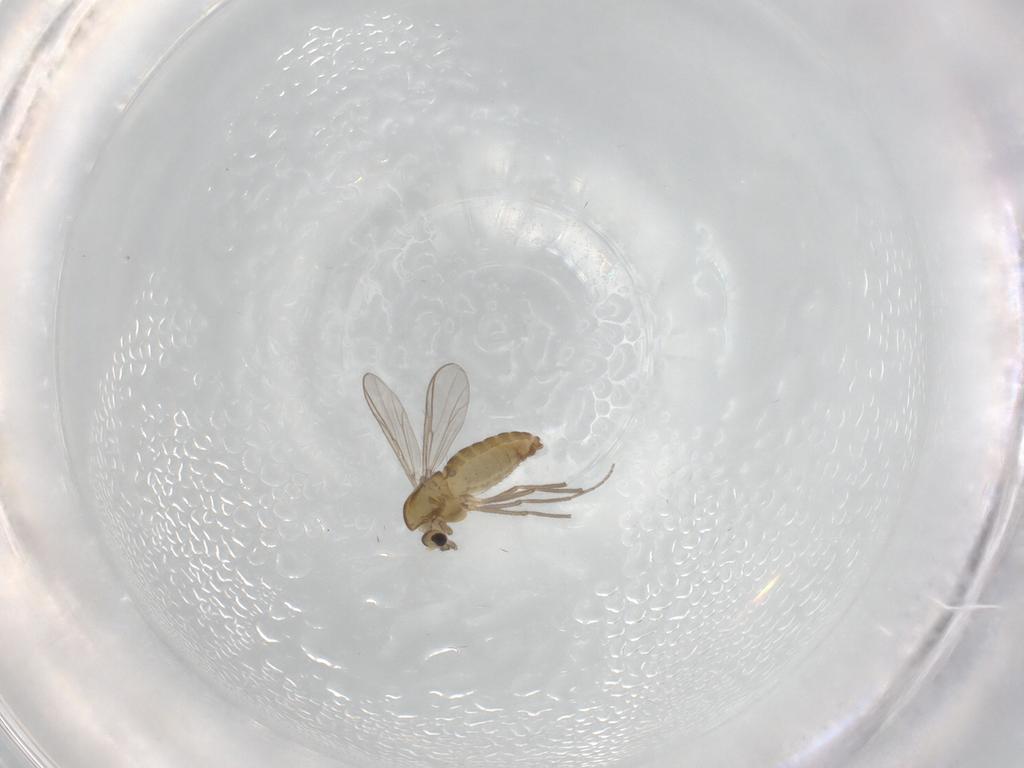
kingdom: Animalia
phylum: Arthropoda
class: Insecta
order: Diptera
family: Chironomidae
